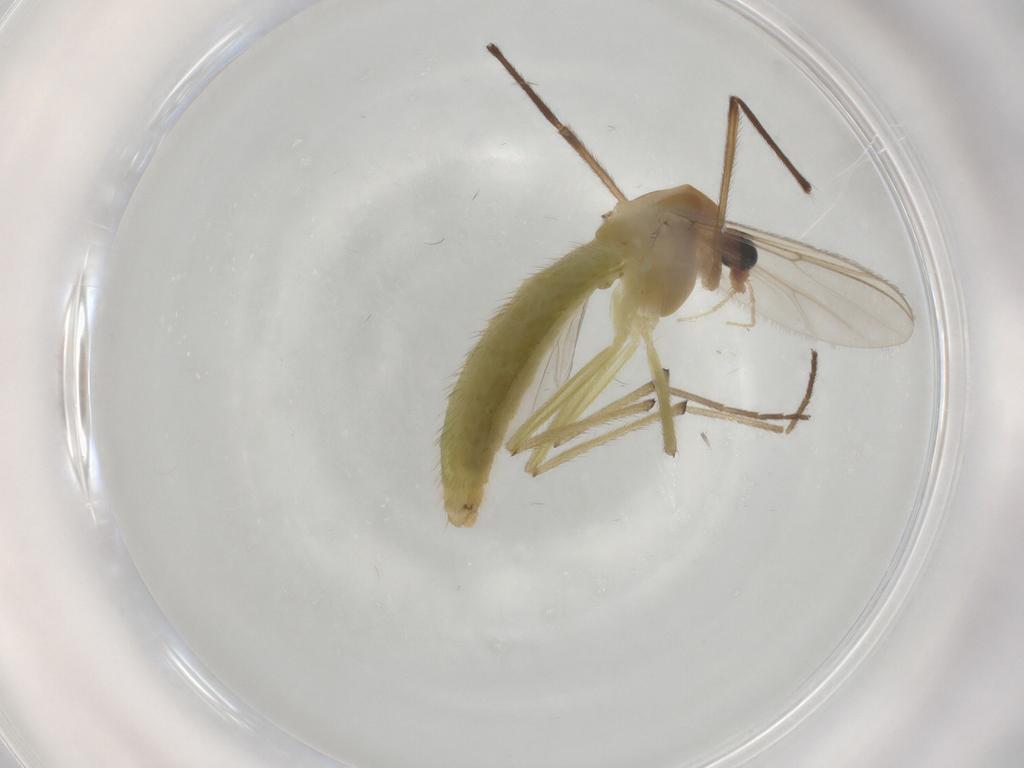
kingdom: Animalia
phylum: Arthropoda
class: Insecta
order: Diptera
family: Chironomidae
